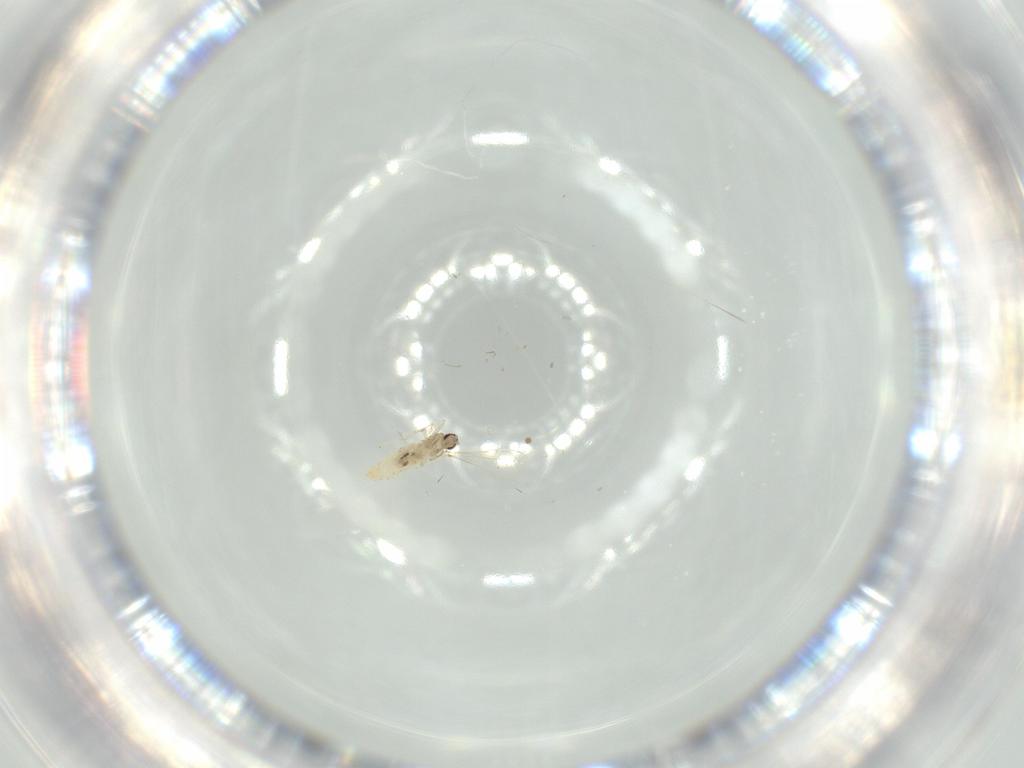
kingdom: Animalia
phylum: Arthropoda
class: Insecta
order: Diptera
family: Cecidomyiidae
